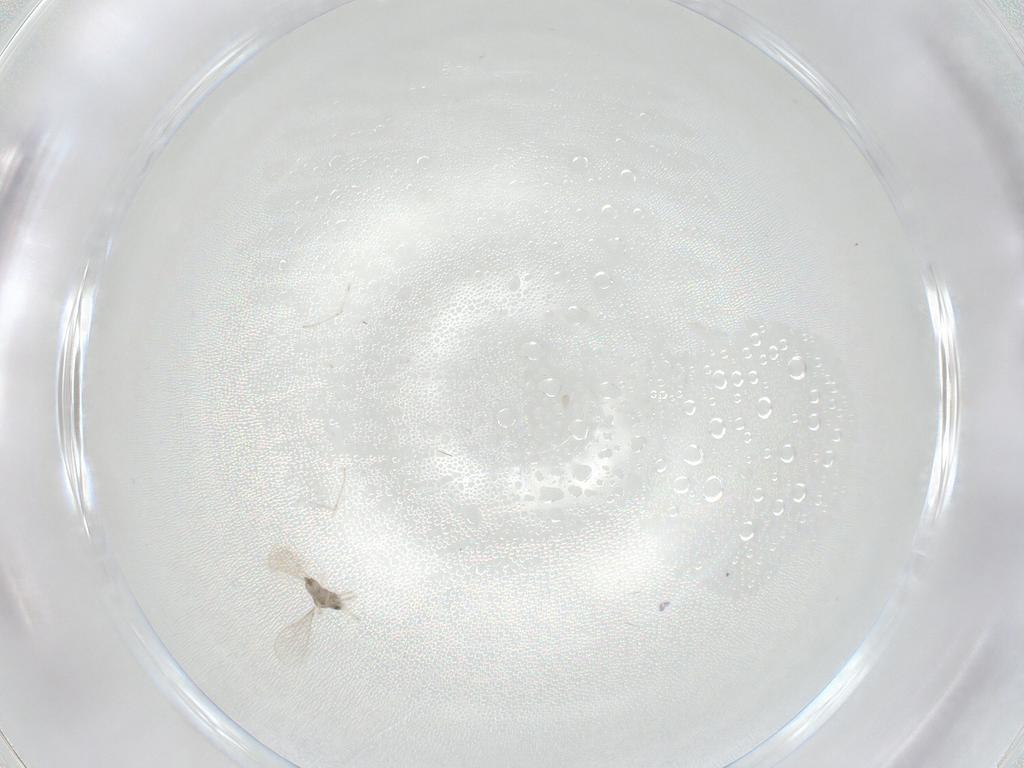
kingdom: Animalia
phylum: Arthropoda
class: Insecta
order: Diptera
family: Cecidomyiidae
